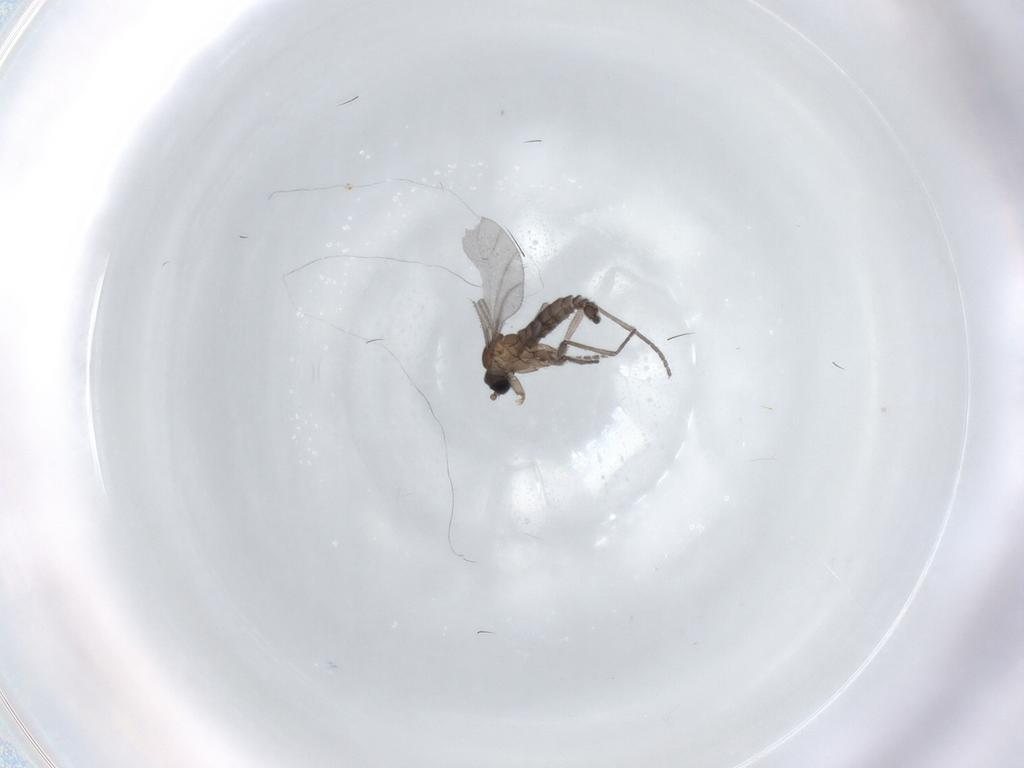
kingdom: Animalia
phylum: Arthropoda
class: Insecta
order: Diptera
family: Sciaridae
